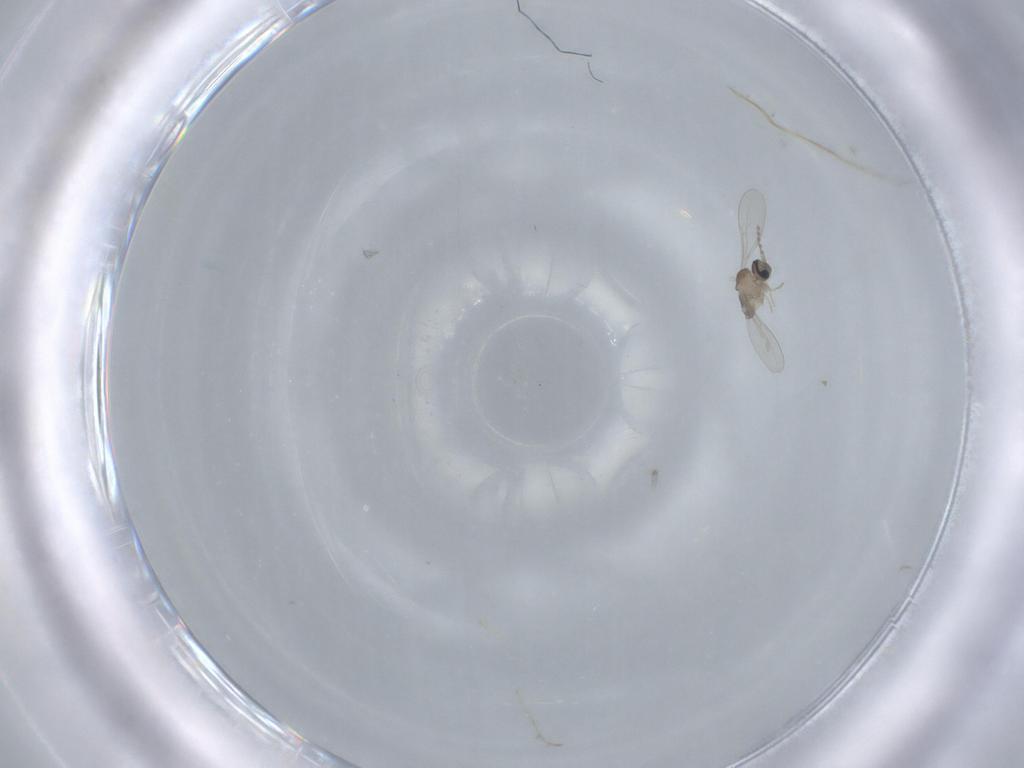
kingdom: Animalia
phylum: Arthropoda
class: Insecta
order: Diptera
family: Cecidomyiidae
